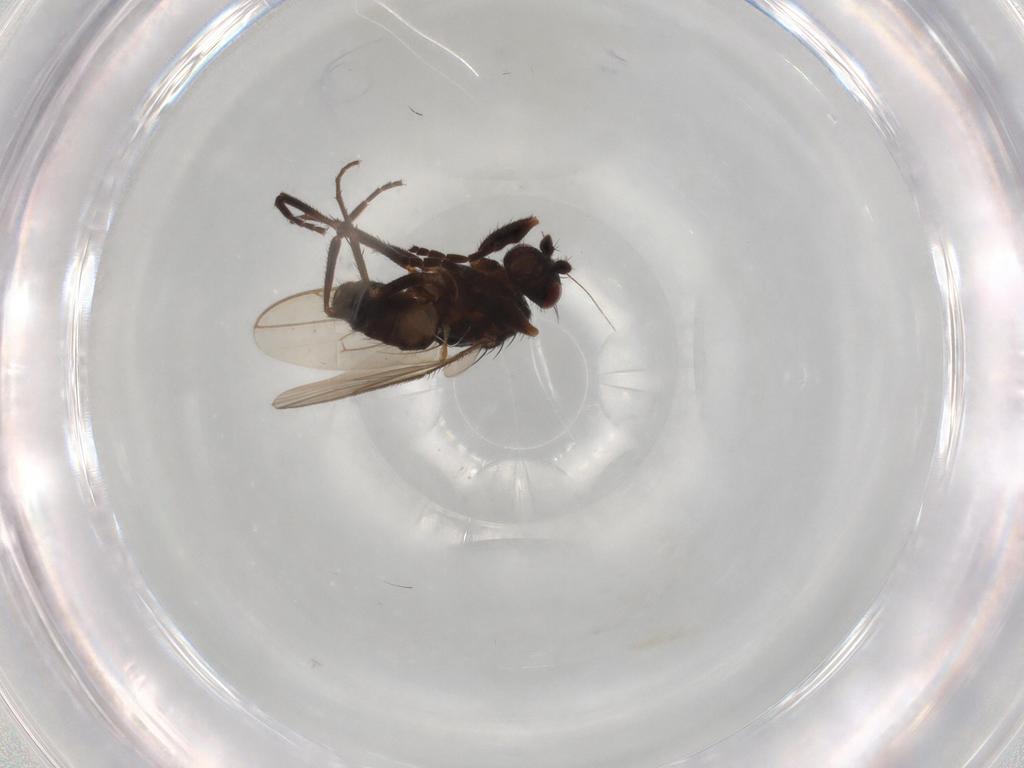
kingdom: Animalia
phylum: Arthropoda
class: Insecta
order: Diptera
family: Sphaeroceridae
